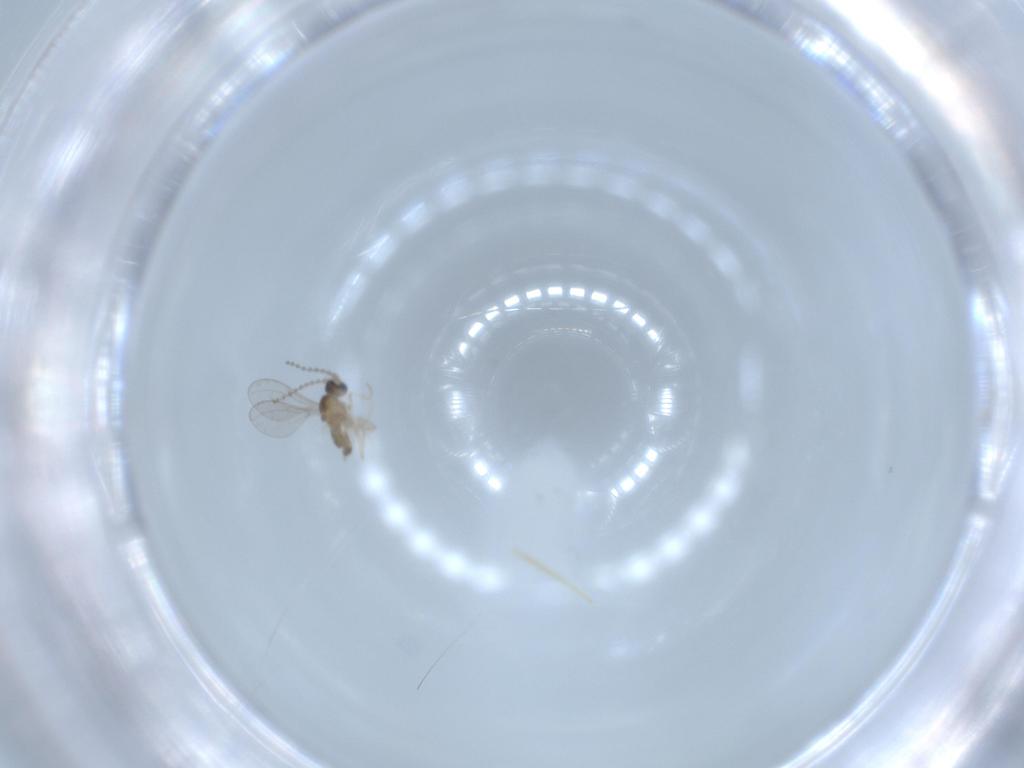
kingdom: Animalia
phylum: Arthropoda
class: Insecta
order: Diptera
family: Cecidomyiidae
